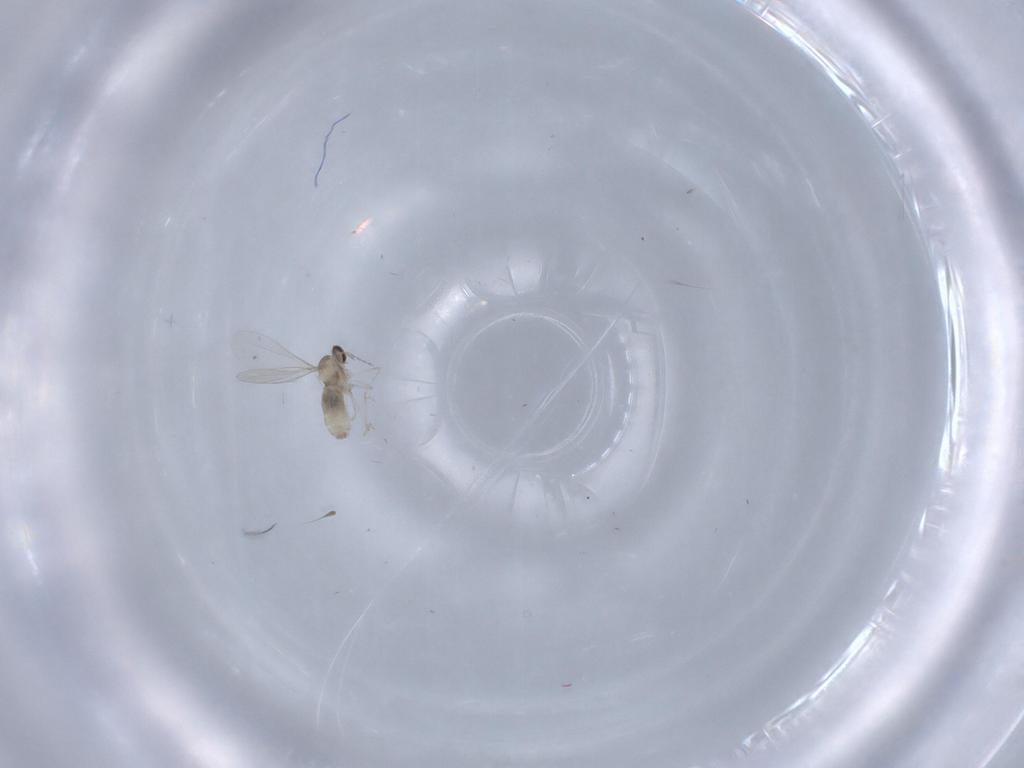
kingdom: Animalia
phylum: Arthropoda
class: Insecta
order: Diptera
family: Cecidomyiidae
